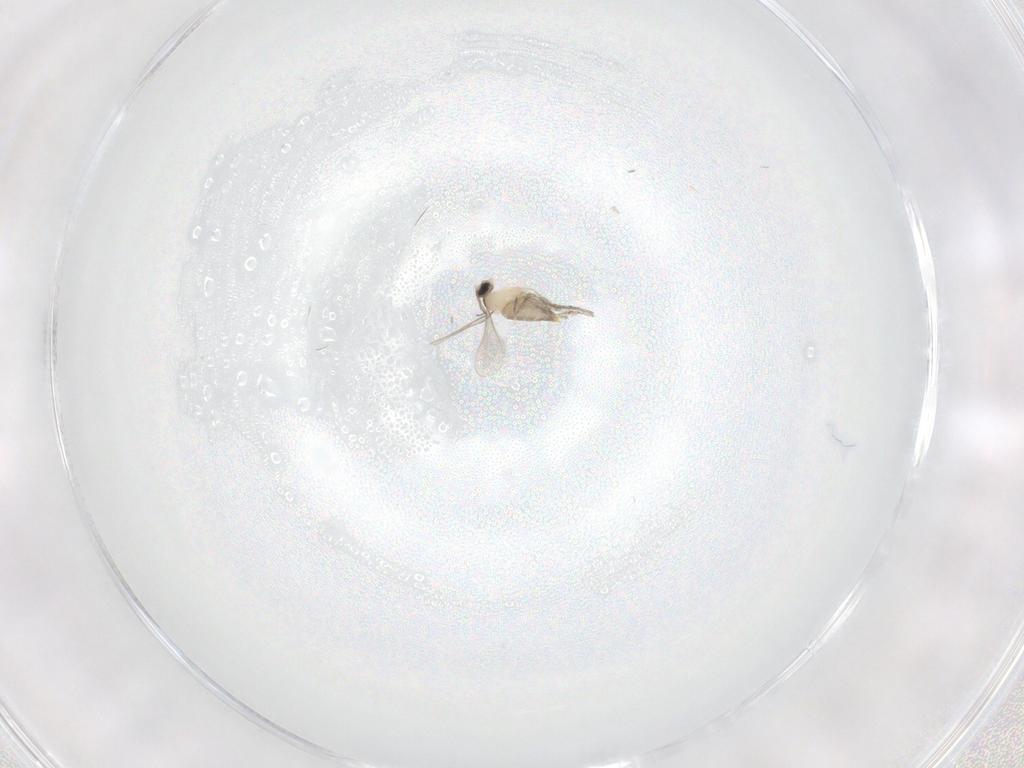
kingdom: Animalia
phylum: Arthropoda
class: Insecta
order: Diptera
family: Cecidomyiidae
